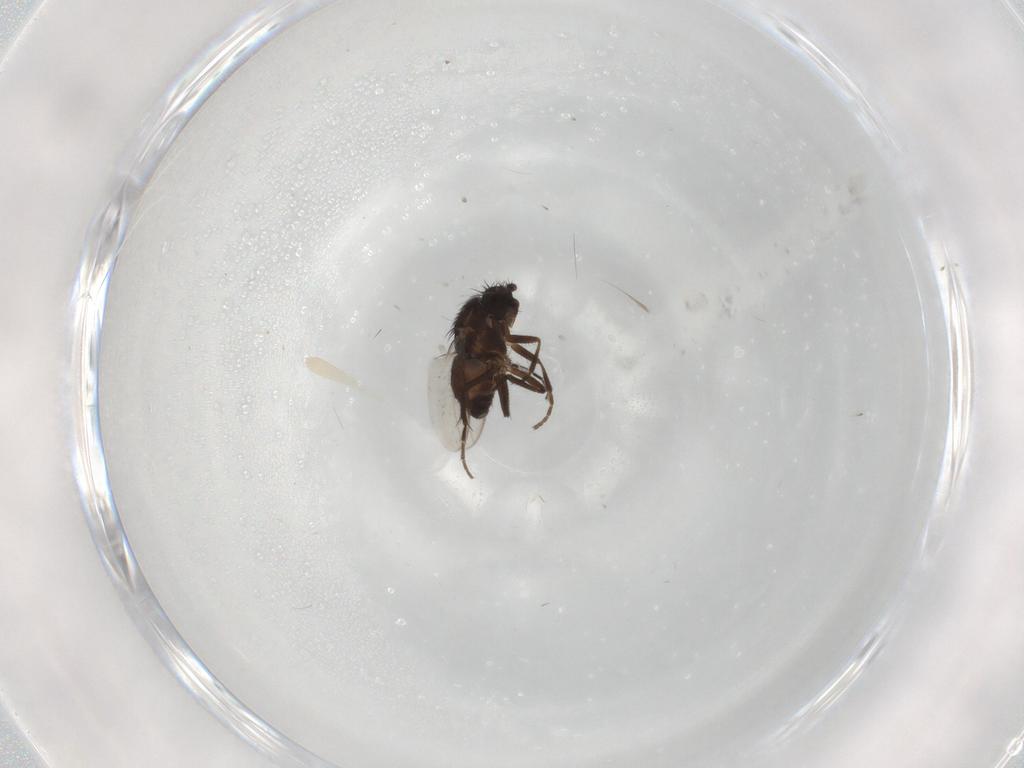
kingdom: Animalia
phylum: Arthropoda
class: Insecta
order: Diptera
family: Sphaeroceridae
